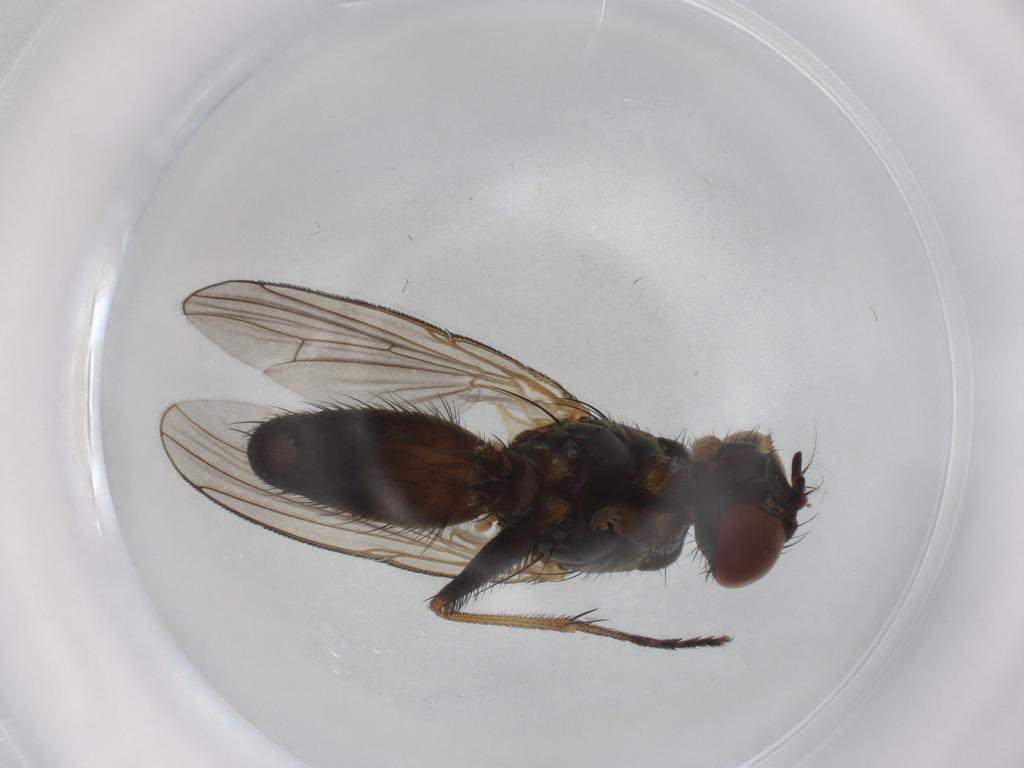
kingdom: Animalia
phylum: Arthropoda
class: Insecta
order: Diptera
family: Muscidae
